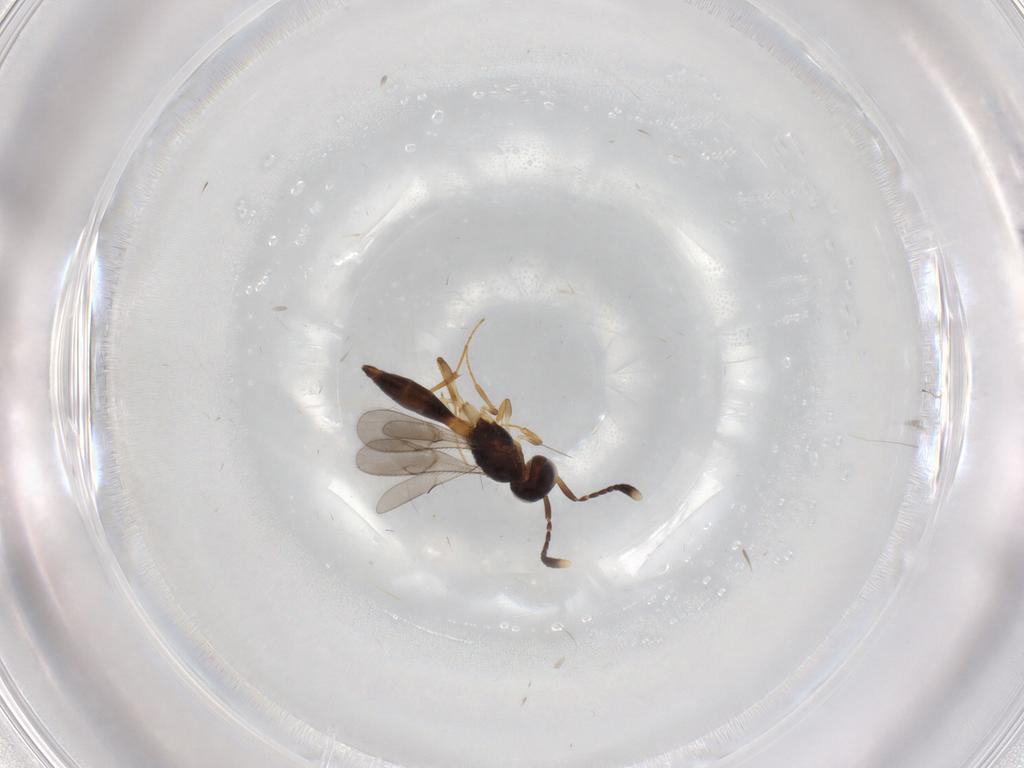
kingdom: Animalia
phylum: Arthropoda
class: Insecta
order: Hymenoptera
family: Scelionidae
